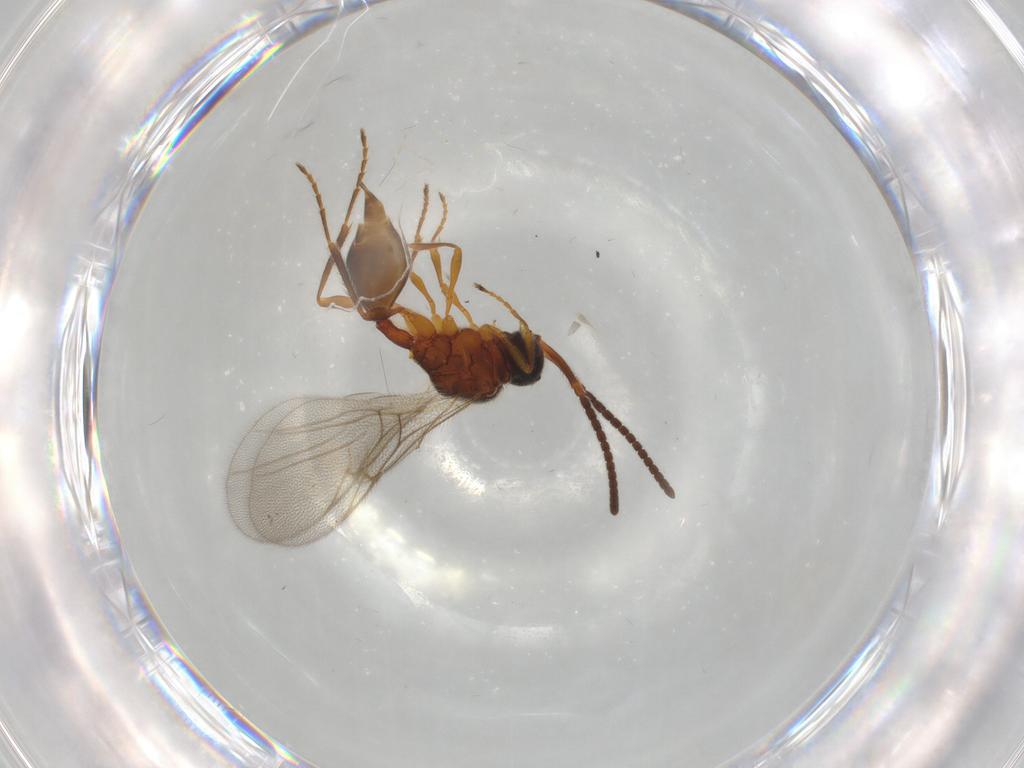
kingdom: Animalia
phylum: Arthropoda
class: Insecta
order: Hymenoptera
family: Diapriidae
